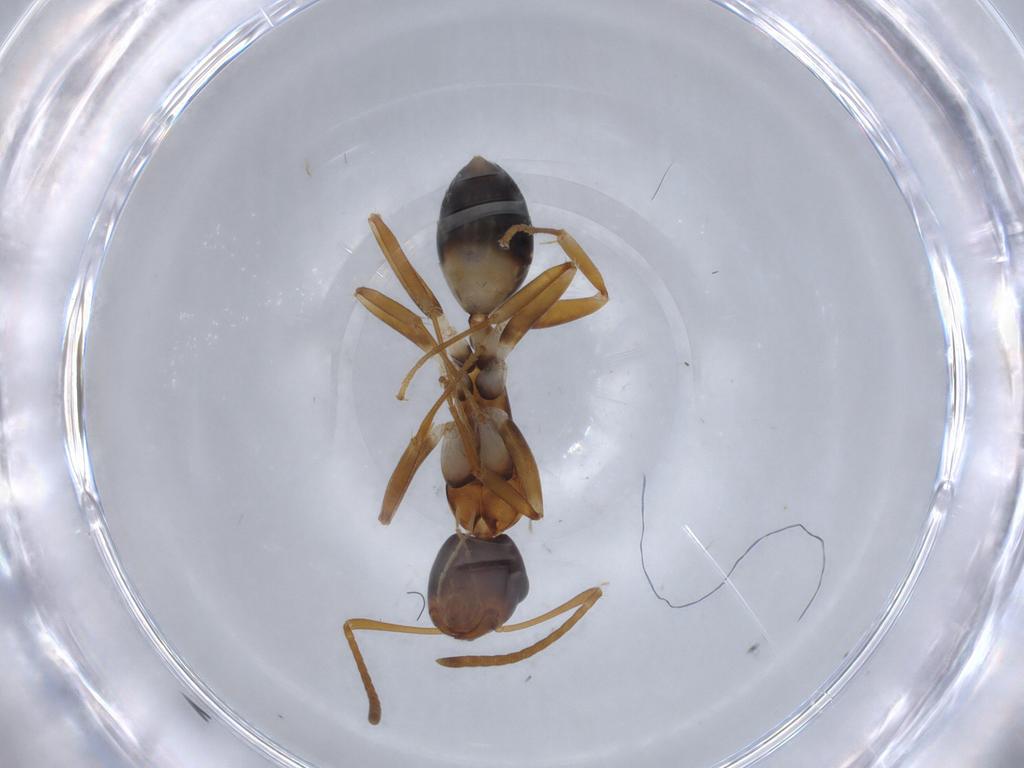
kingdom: Animalia
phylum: Arthropoda
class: Insecta
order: Hymenoptera
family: Formicidae
